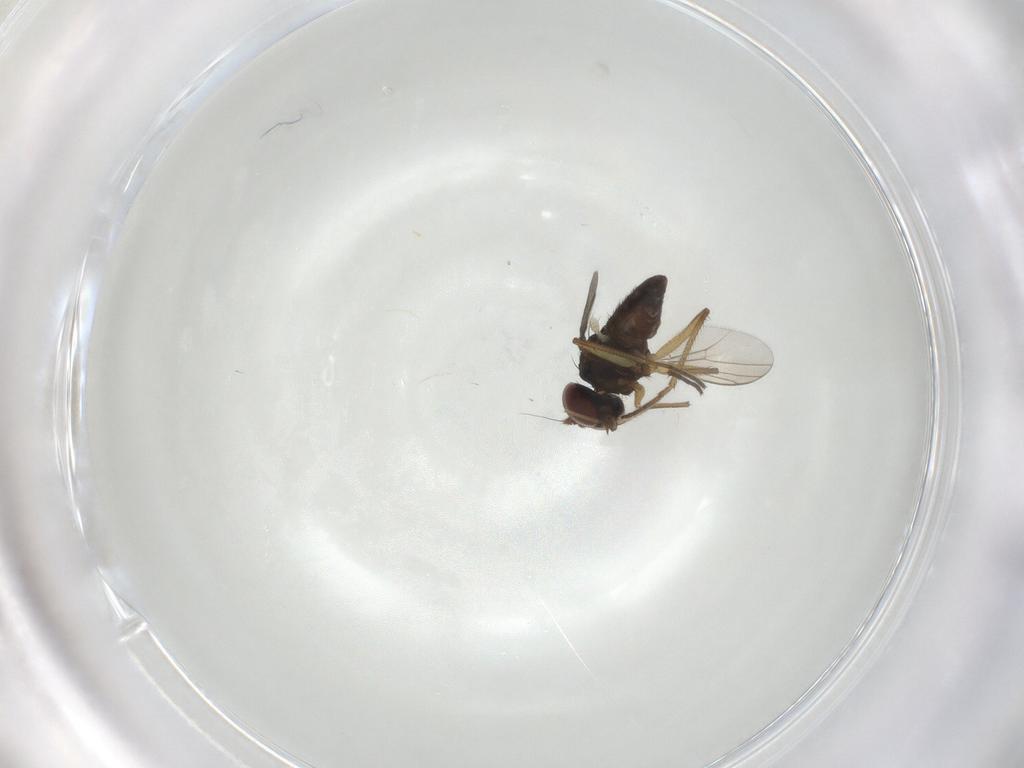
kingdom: Animalia
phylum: Arthropoda
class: Insecta
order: Diptera
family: Dolichopodidae
